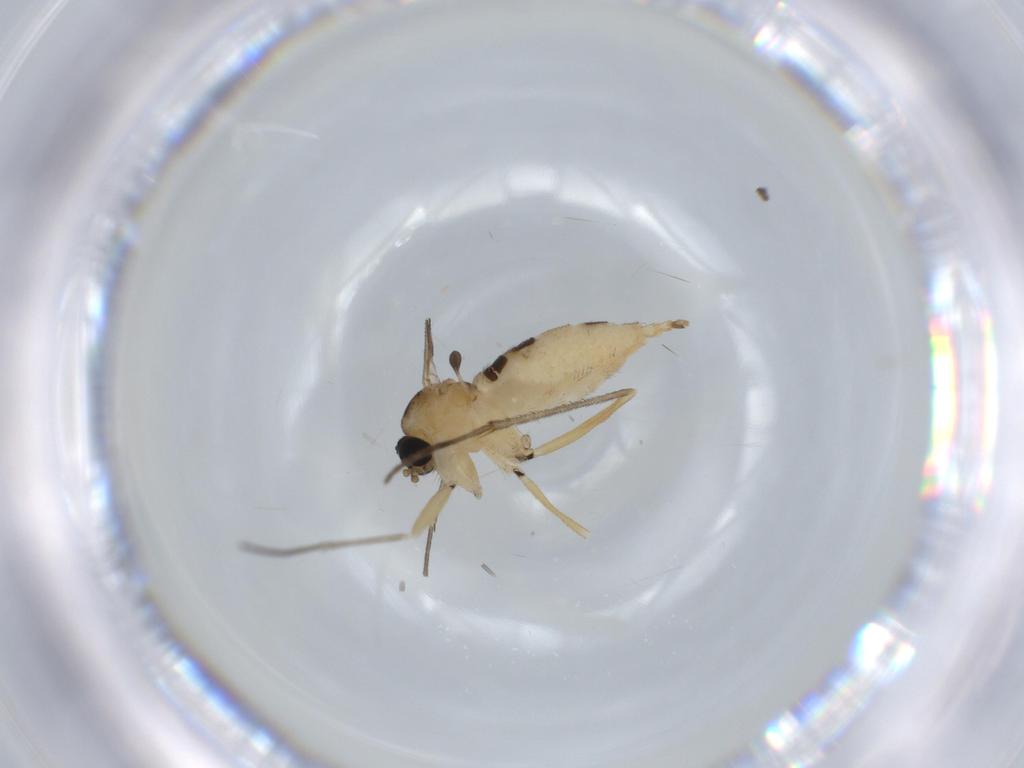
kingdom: Animalia
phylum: Arthropoda
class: Insecta
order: Diptera
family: Sciaridae
